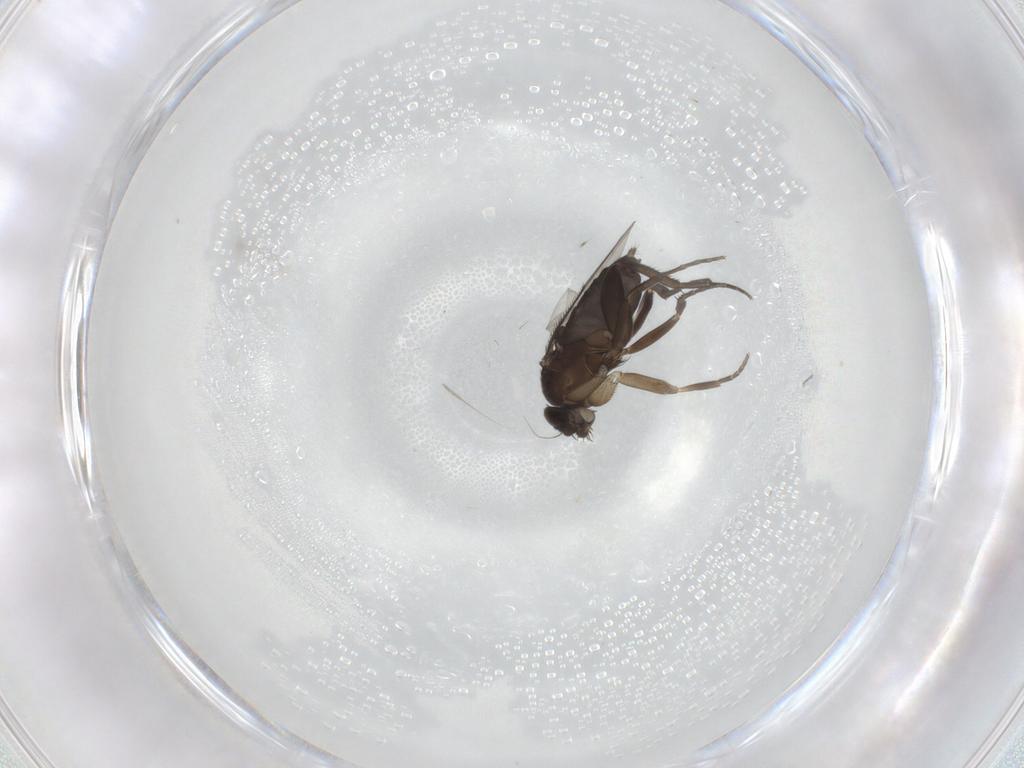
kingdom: Animalia
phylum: Arthropoda
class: Insecta
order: Diptera
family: Phoridae
